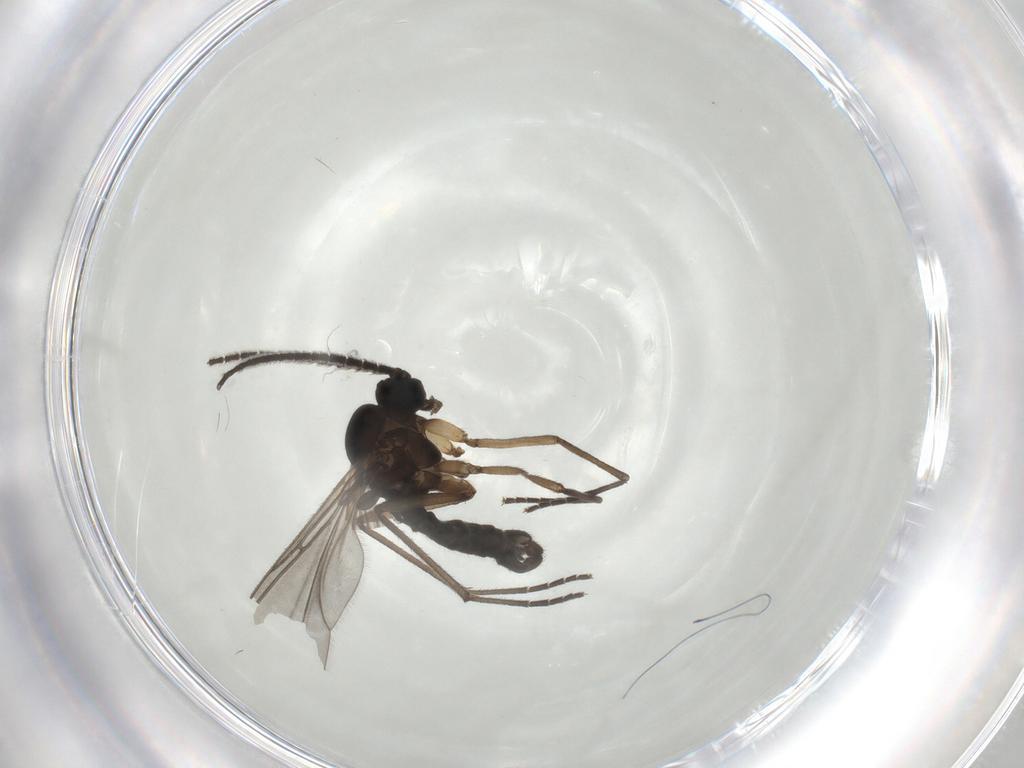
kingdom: Animalia
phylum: Arthropoda
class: Insecta
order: Diptera
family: Sciaridae
